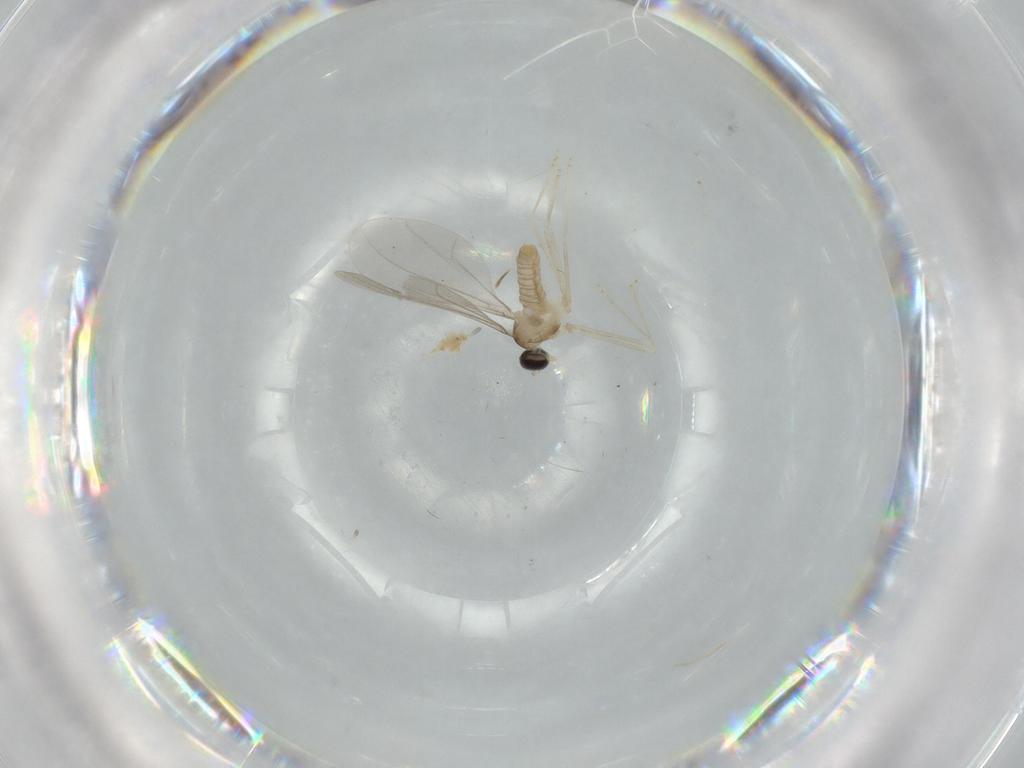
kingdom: Animalia
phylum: Arthropoda
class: Insecta
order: Diptera
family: Cecidomyiidae
